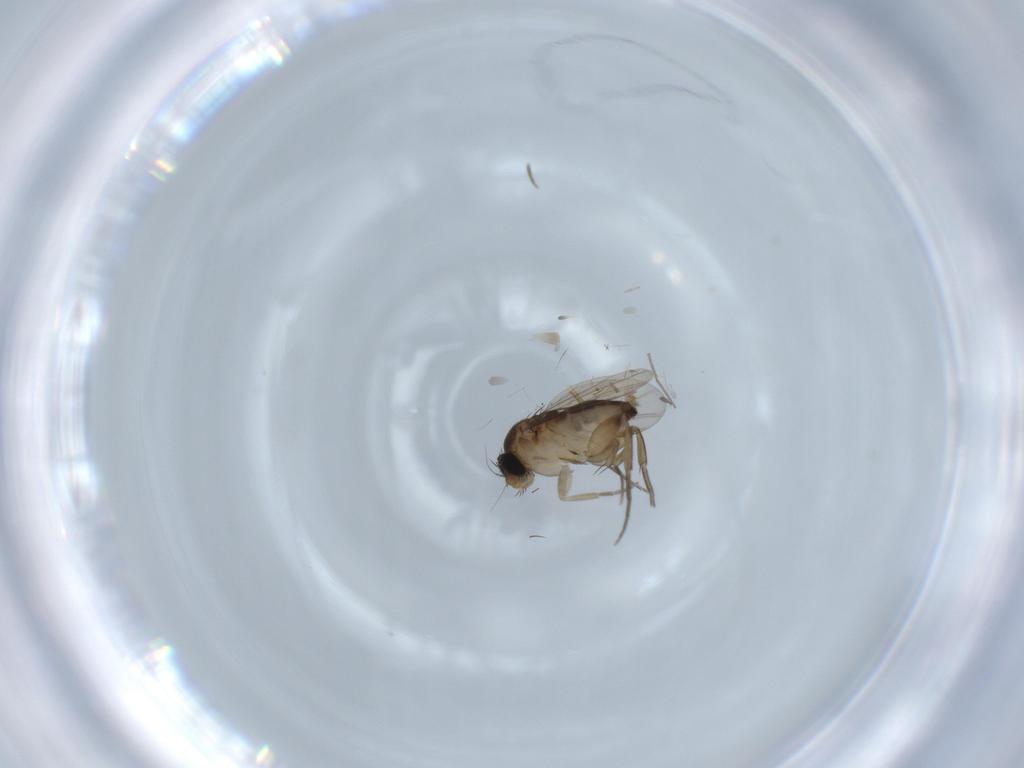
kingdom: Animalia
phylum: Arthropoda
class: Insecta
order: Diptera
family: Phoridae
